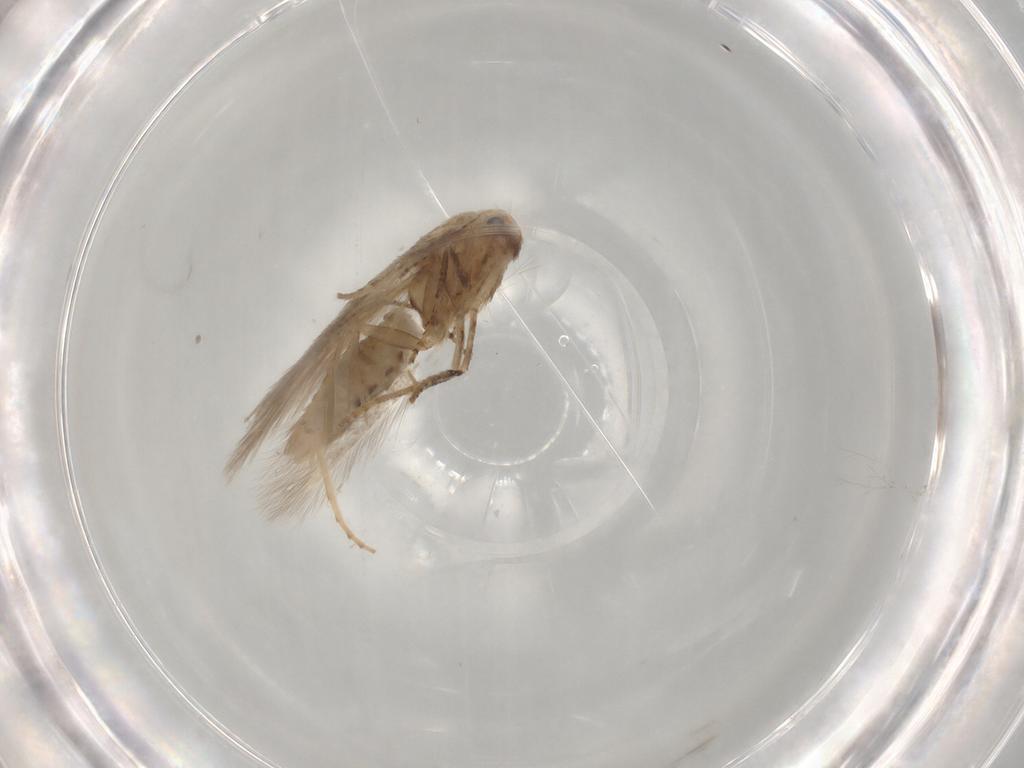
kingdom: Animalia
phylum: Arthropoda
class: Insecta
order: Lepidoptera
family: Bucculatricidae
